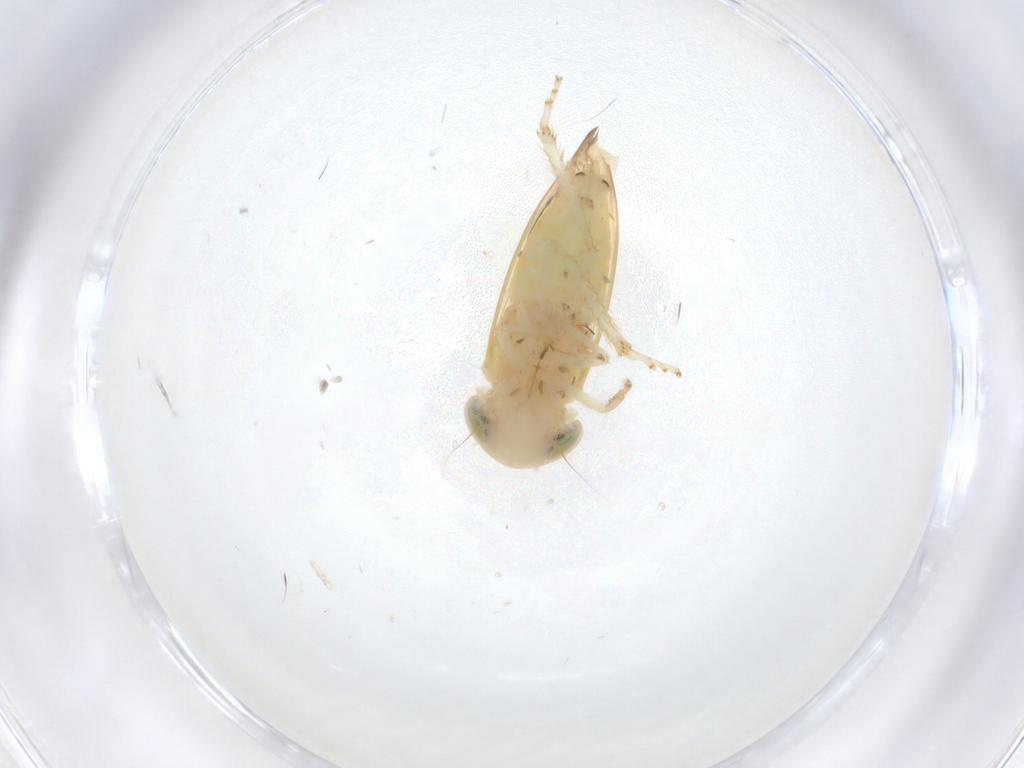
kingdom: Animalia
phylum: Arthropoda
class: Insecta
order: Hemiptera
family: Cicadellidae
